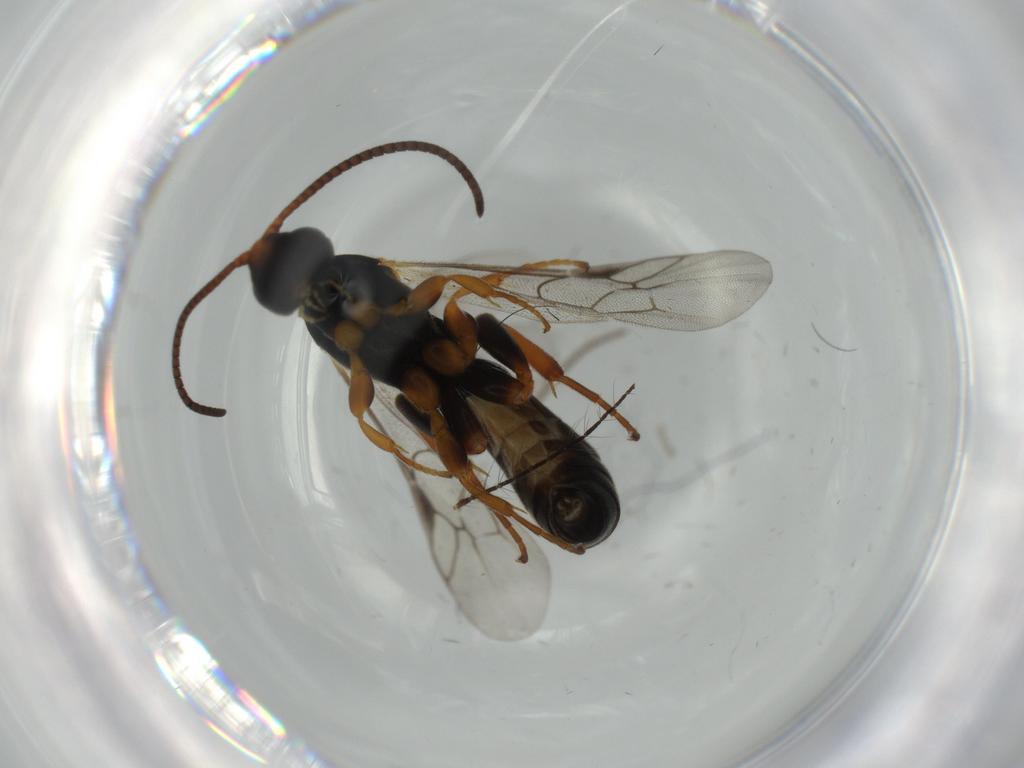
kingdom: Animalia
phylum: Arthropoda
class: Insecta
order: Hymenoptera
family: Ichneumonidae
